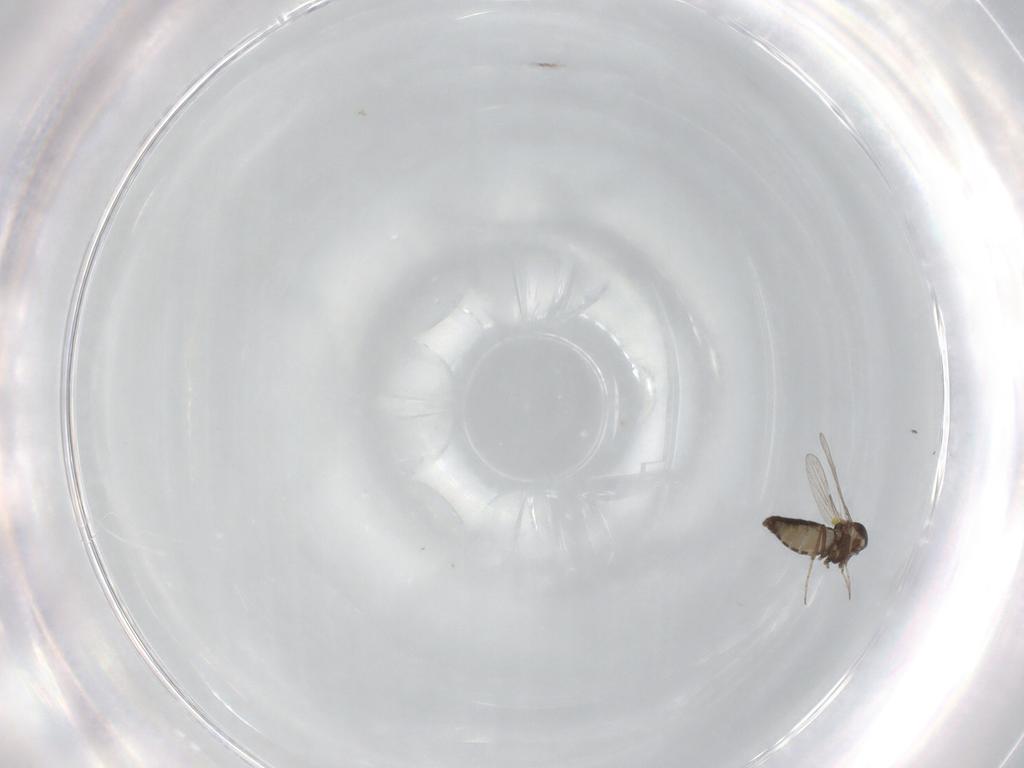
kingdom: Animalia
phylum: Arthropoda
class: Insecta
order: Diptera
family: Ceratopogonidae
